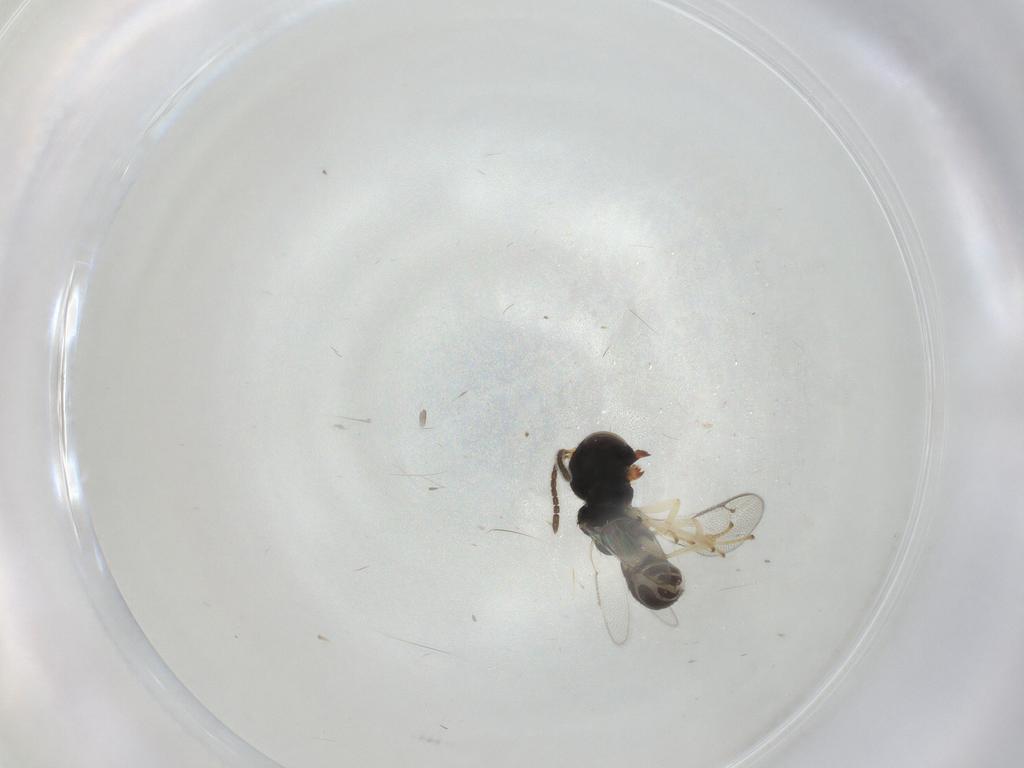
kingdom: Animalia
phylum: Arthropoda
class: Insecta
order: Hymenoptera
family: Pteromalidae
